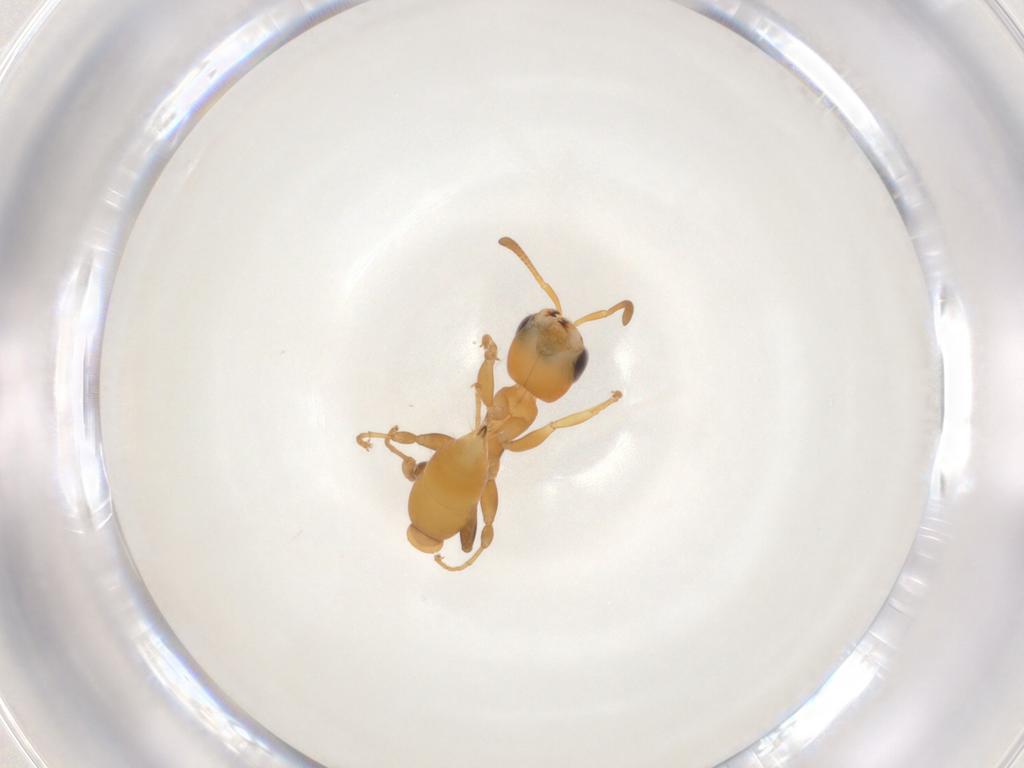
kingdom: Animalia
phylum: Arthropoda
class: Insecta
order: Hymenoptera
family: Formicidae
